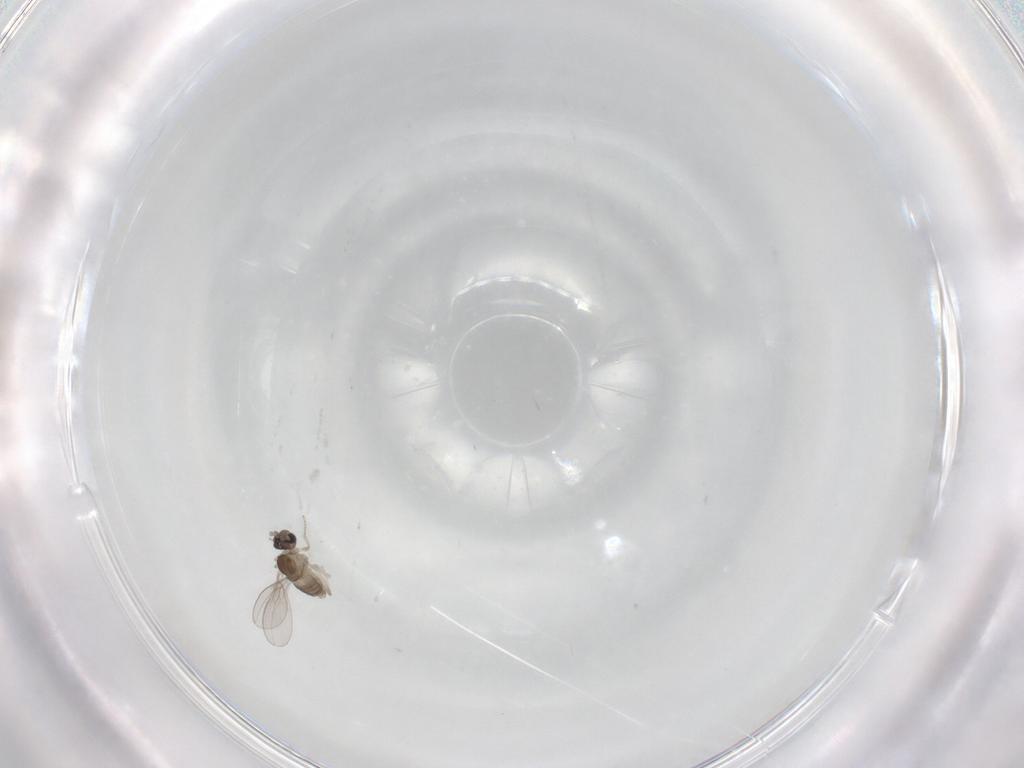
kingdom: Animalia
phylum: Arthropoda
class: Insecta
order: Diptera
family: Cecidomyiidae
